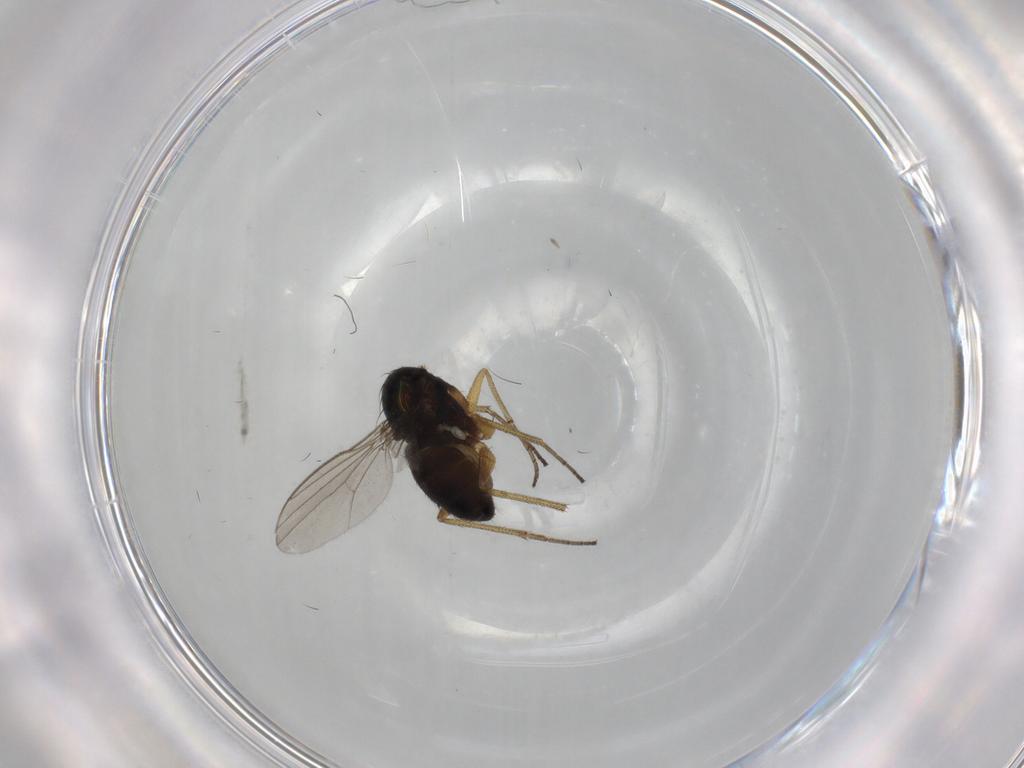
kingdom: Animalia
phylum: Arthropoda
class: Insecta
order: Diptera
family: Dolichopodidae
